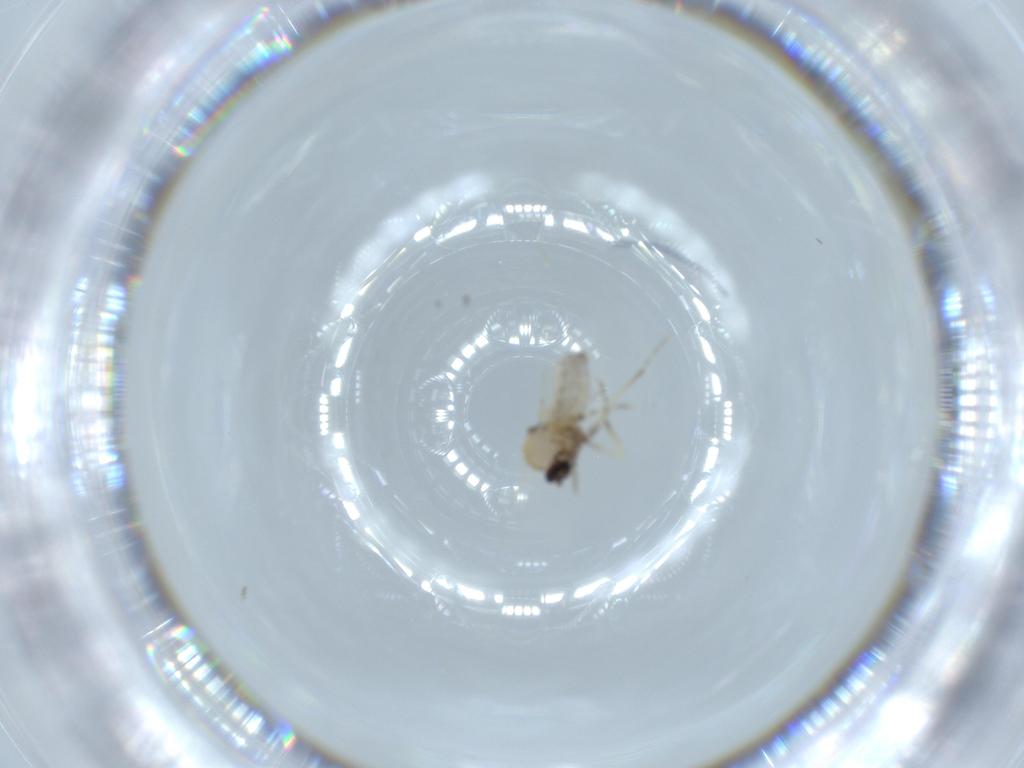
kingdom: Animalia
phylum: Arthropoda
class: Insecta
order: Diptera
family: Ceratopogonidae
